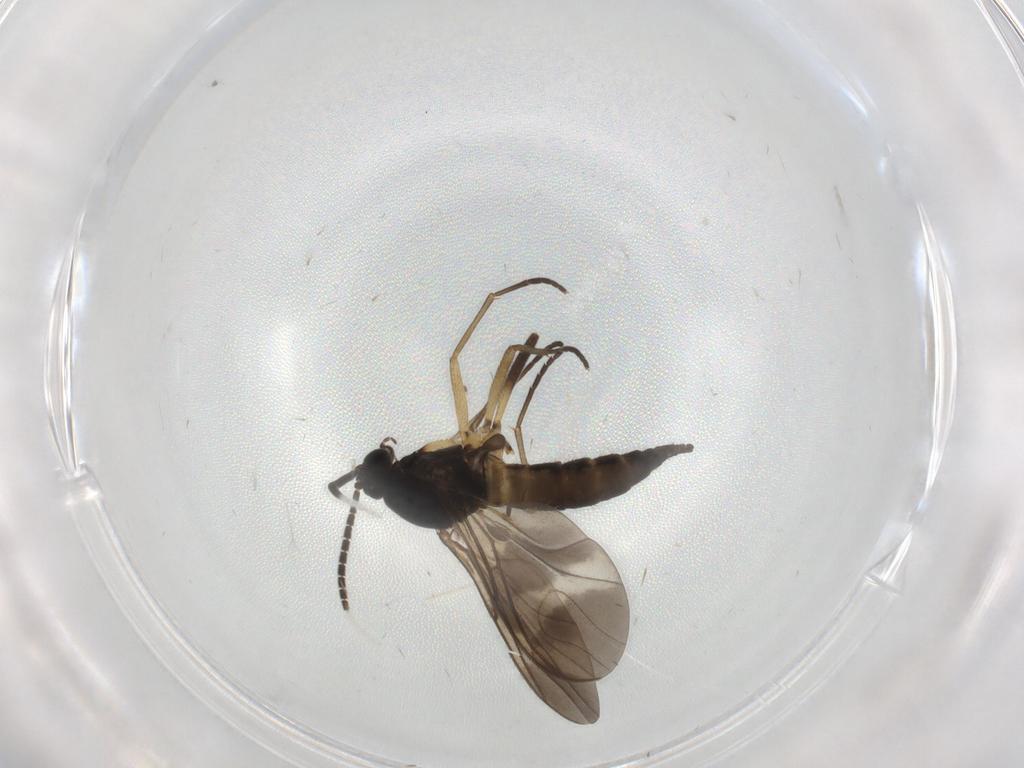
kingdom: Animalia
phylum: Arthropoda
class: Insecta
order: Diptera
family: Sciaridae
